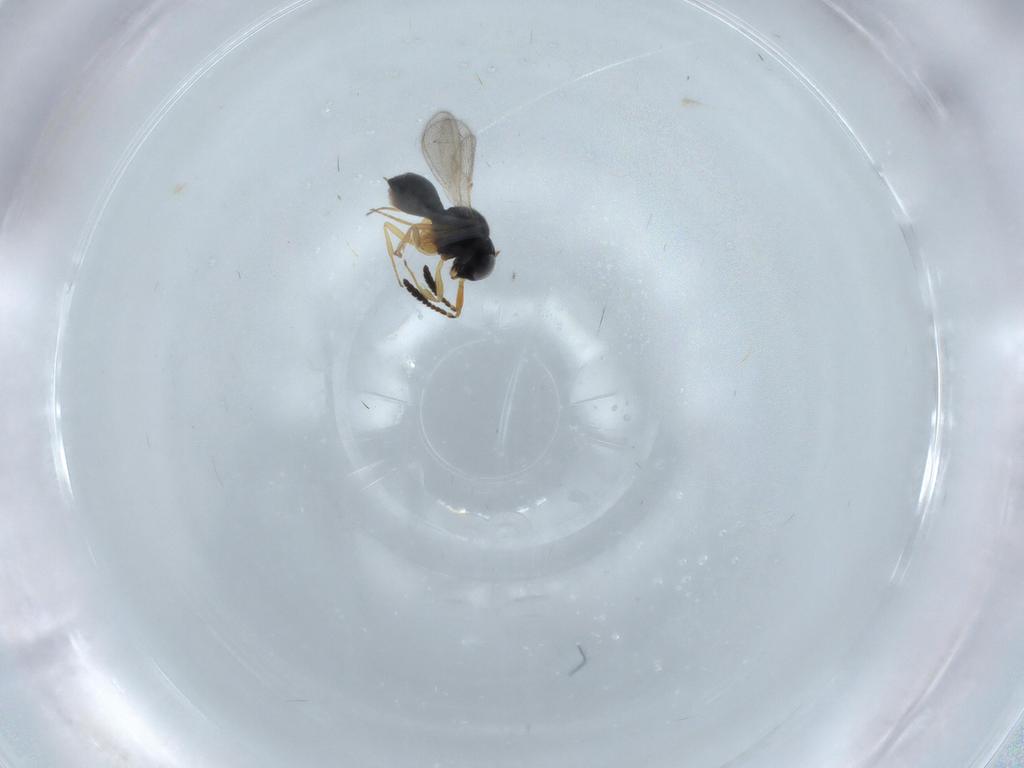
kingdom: Animalia
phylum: Arthropoda
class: Insecta
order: Hymenoptera
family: Scelionidae
